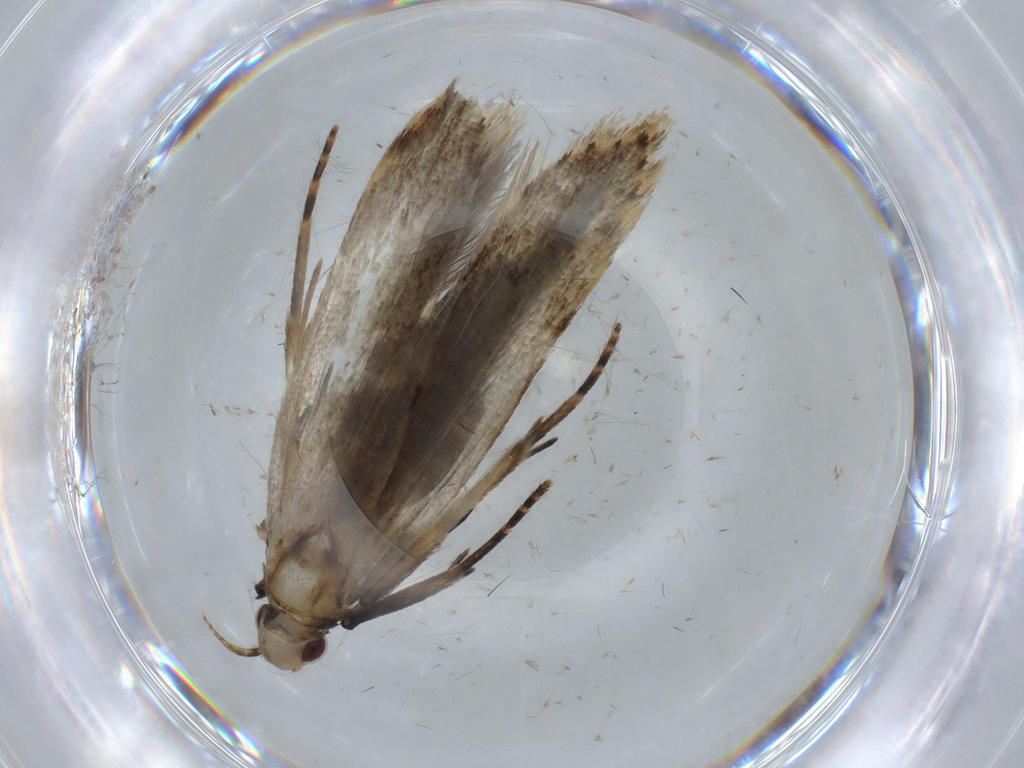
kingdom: Animalia
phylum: Arthropoda
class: Insecta
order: Lepidoptera
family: Gelechiidae
